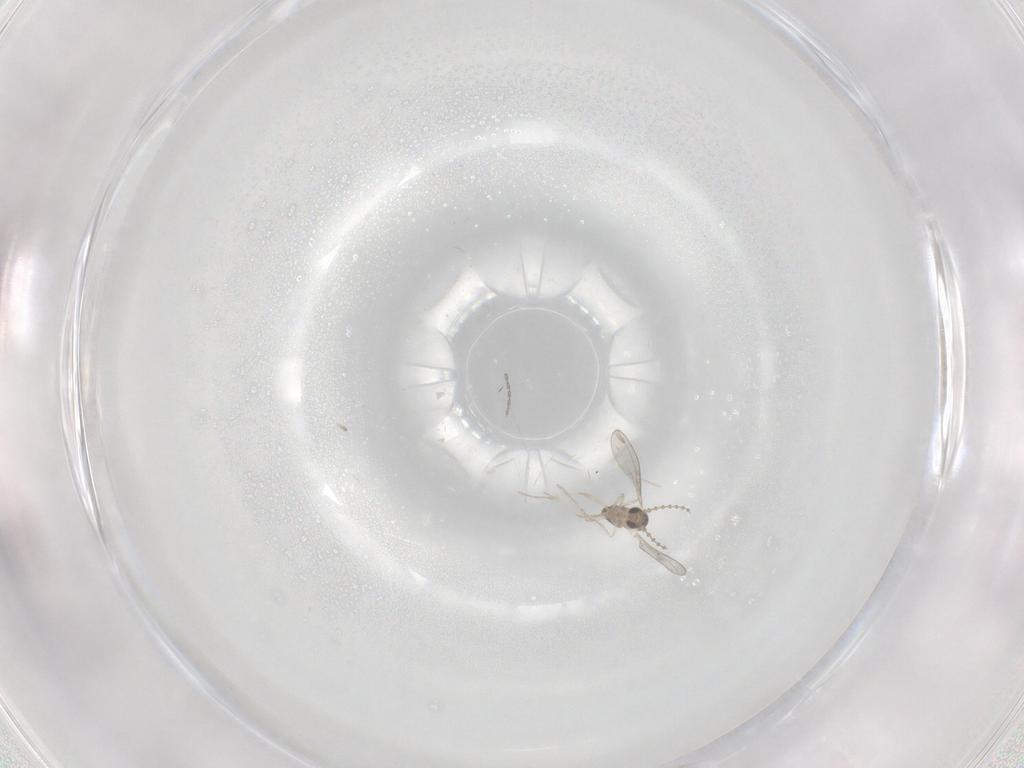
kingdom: Animalia
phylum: Arthropoda
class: Insecta
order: Diptera
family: Cecidomyiidae
